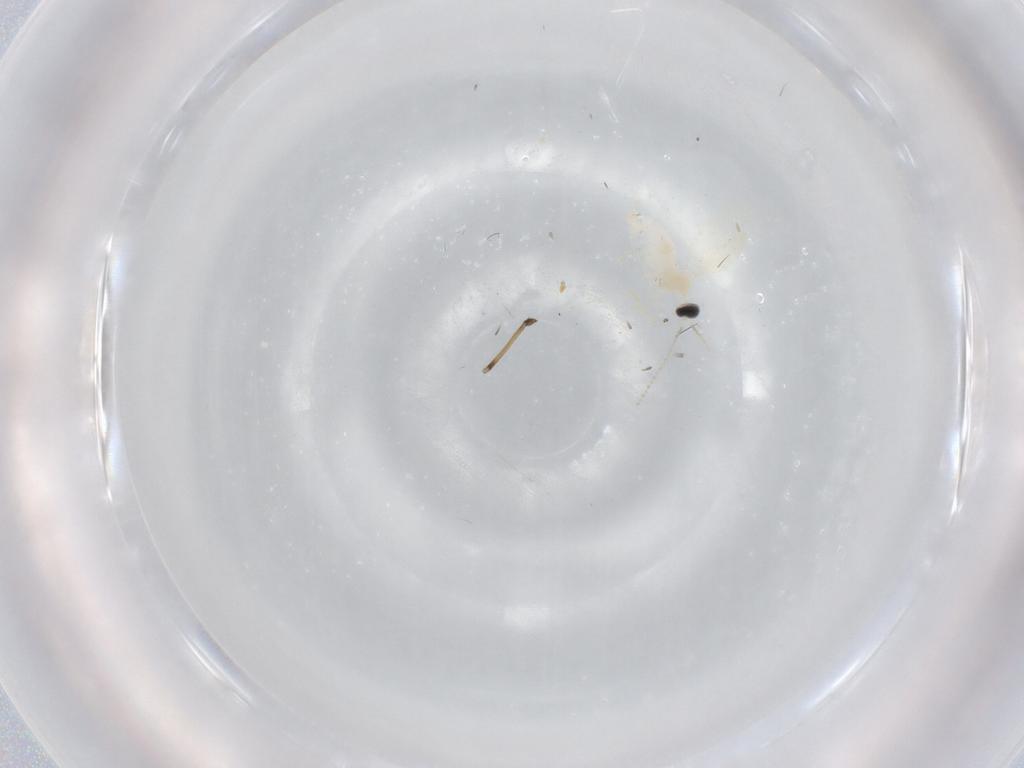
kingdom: Animalia
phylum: Arthropoda
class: Insecta
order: Diptera
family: Cecidomyiidae
